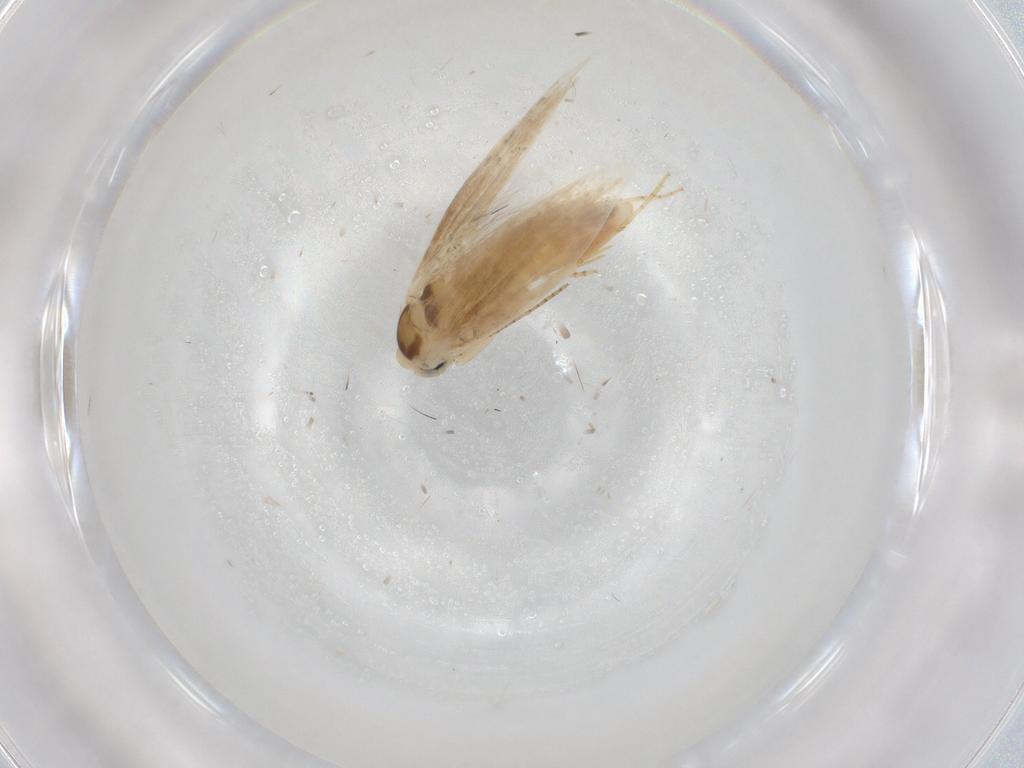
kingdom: Animalia
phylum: Arthropoda
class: Insecta
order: Lepidoptera
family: Bucculatricidae
